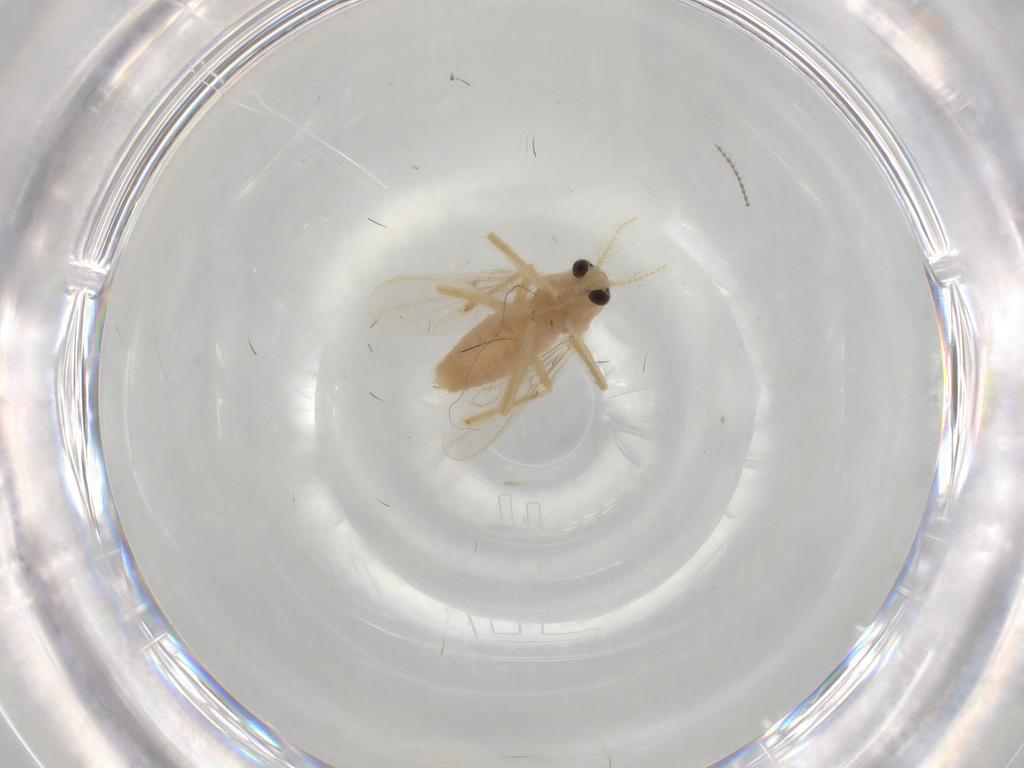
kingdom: Animalia
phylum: Arthropoda
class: Insecta
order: Diptera
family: Chironomidae
